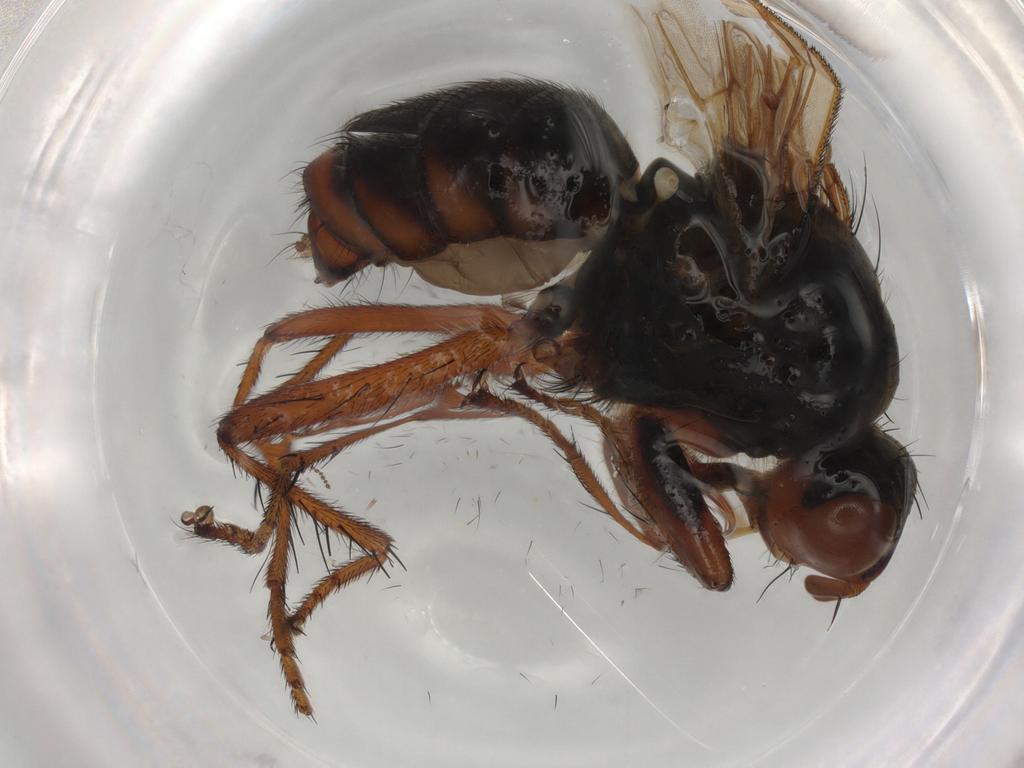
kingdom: Animalia
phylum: Arthropoda
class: Insecta
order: Diptera
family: Scathophagidae
